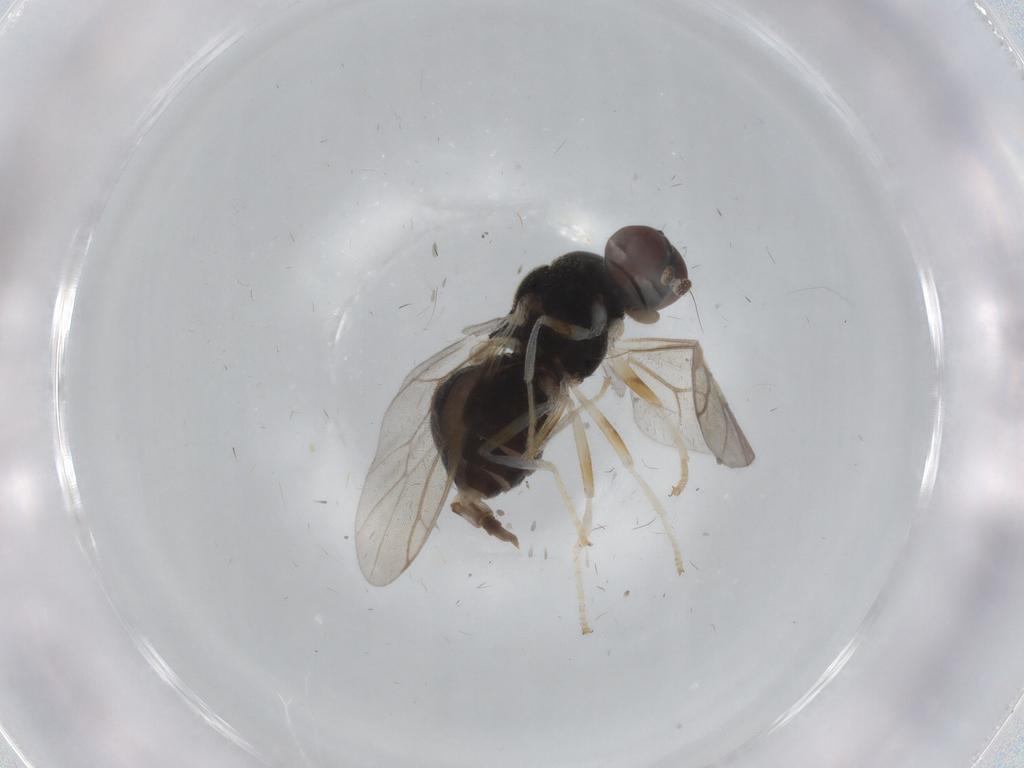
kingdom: Animalia
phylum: Arthropoda
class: Insecta
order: Diptera
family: Stratiomyidae
